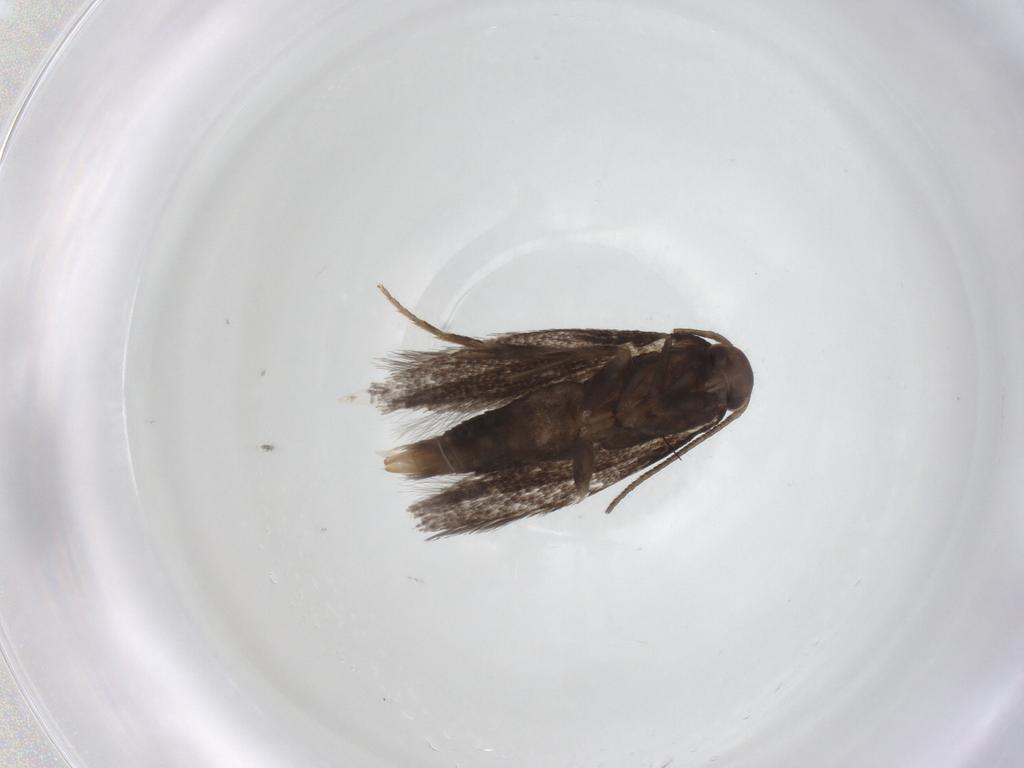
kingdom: Animalia
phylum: Arthropoda
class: Insecta
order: Lepidoptera
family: Elachistidae
